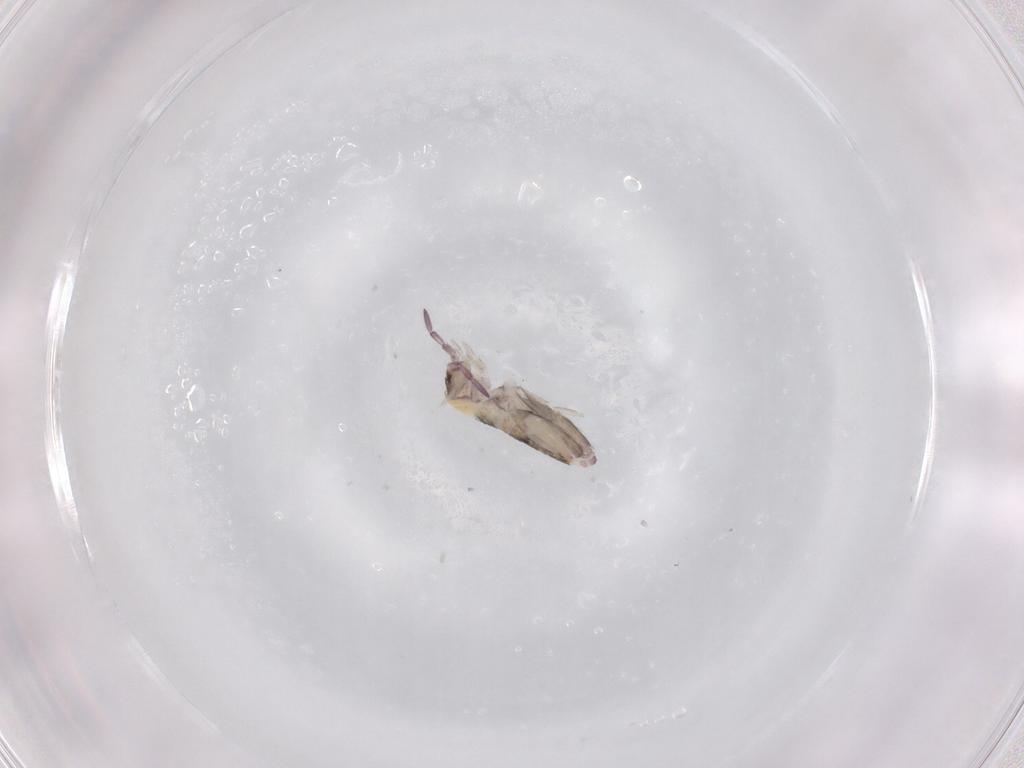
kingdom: Animalia
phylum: Arthropoda
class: Collembola
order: Entomobryomorpha
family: Entomobryidae
